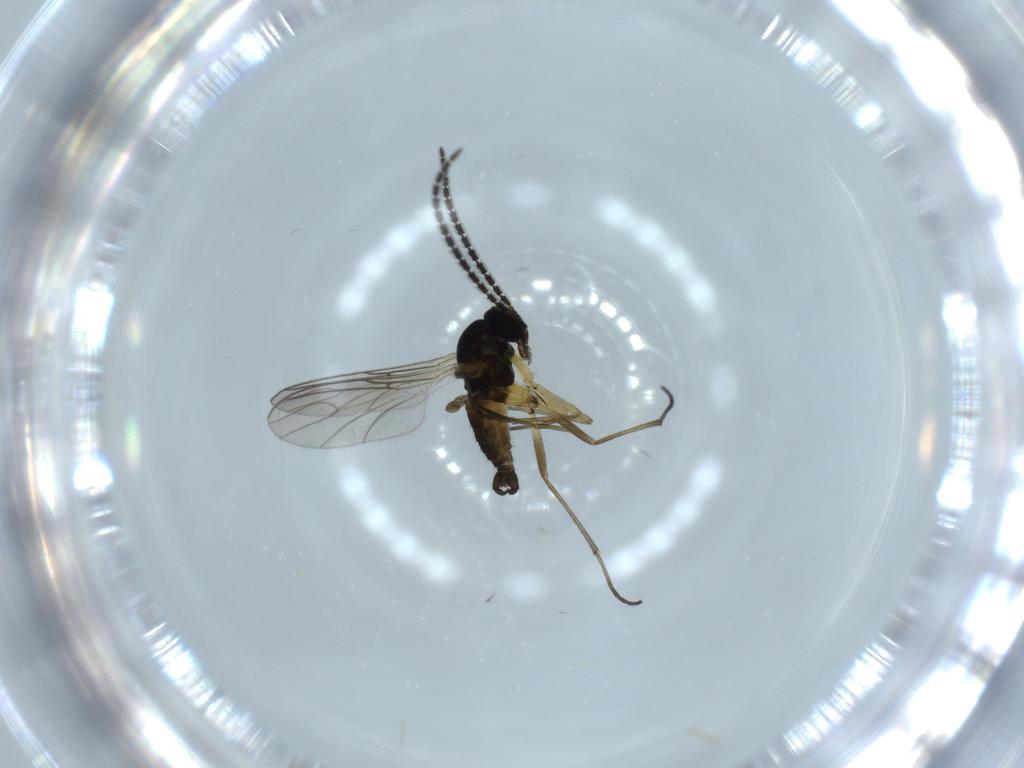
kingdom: Animalia
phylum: Arthropoda
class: Insecta
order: Diptera
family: Sciaridae
